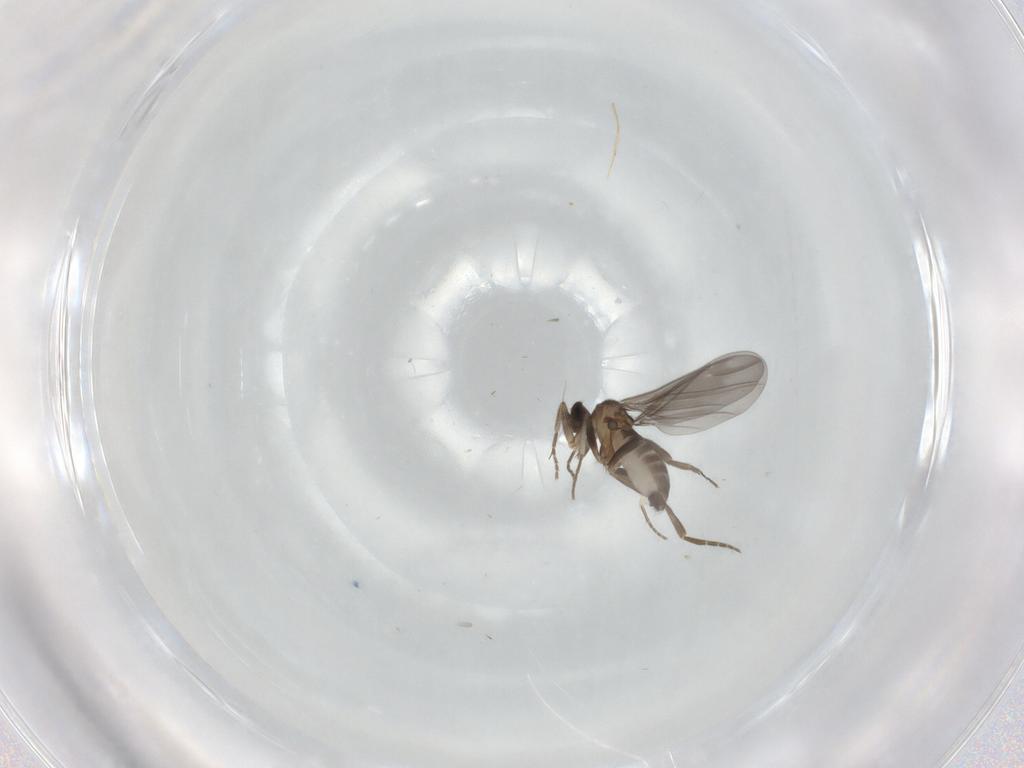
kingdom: Animalia
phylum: Arthropoda
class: Insecta
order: Diptera
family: Phoridae
